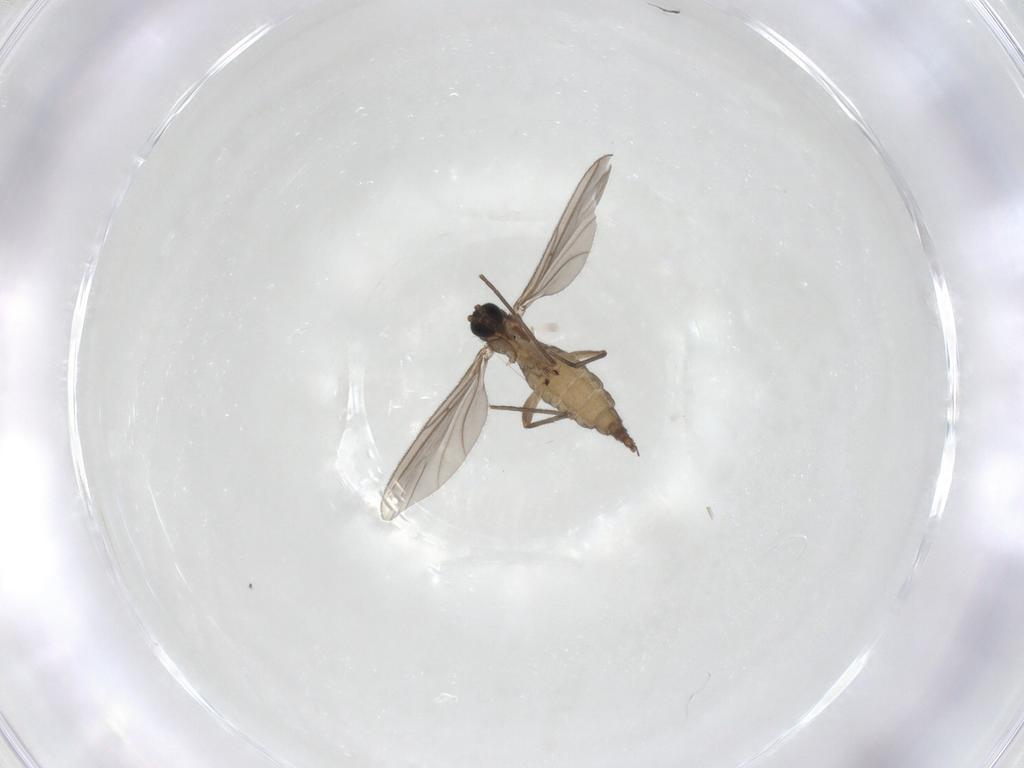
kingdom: Animalia
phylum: Arthropoda
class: Insecta
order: Diptera
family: Sciaridae
